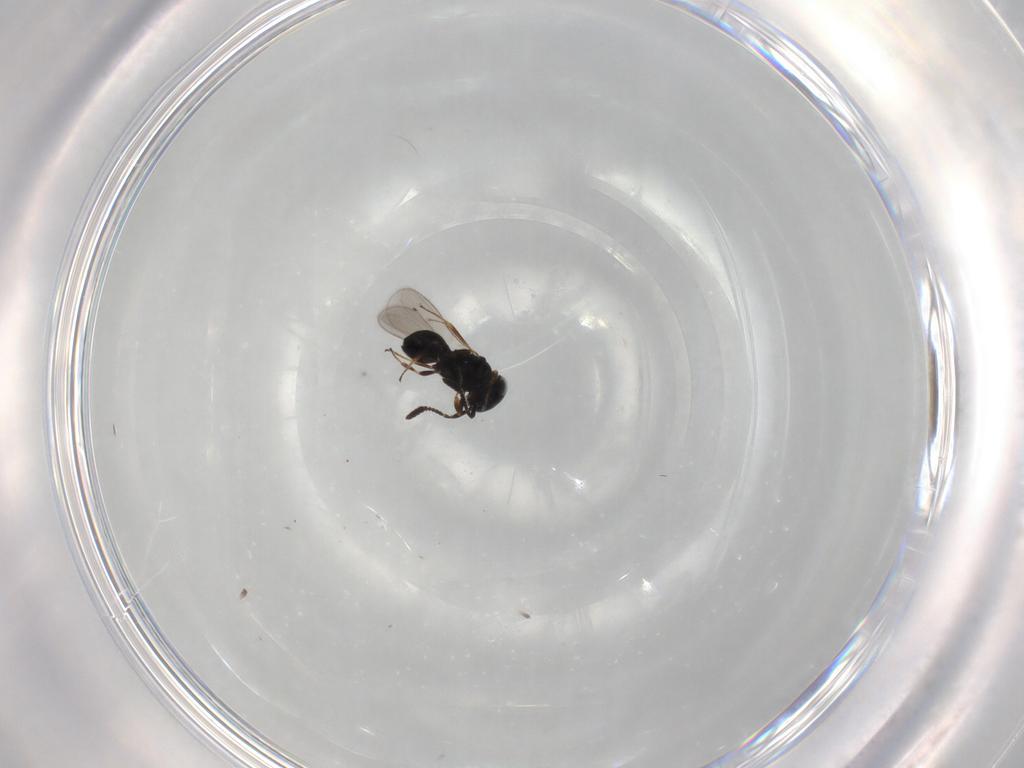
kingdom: Animalia
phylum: Arthropoda
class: Insecta
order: Hymenoptera
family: Scelionidae
